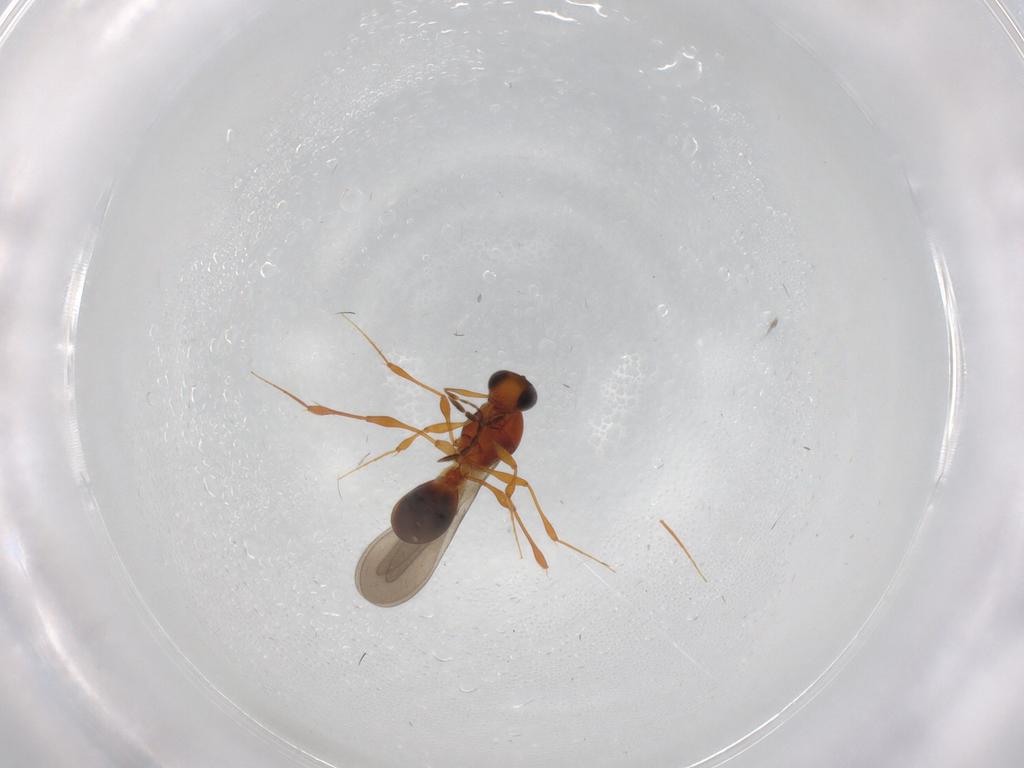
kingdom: Animalia
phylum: Arthropoda
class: Insecta
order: Hymenoptera
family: Platygastridae
